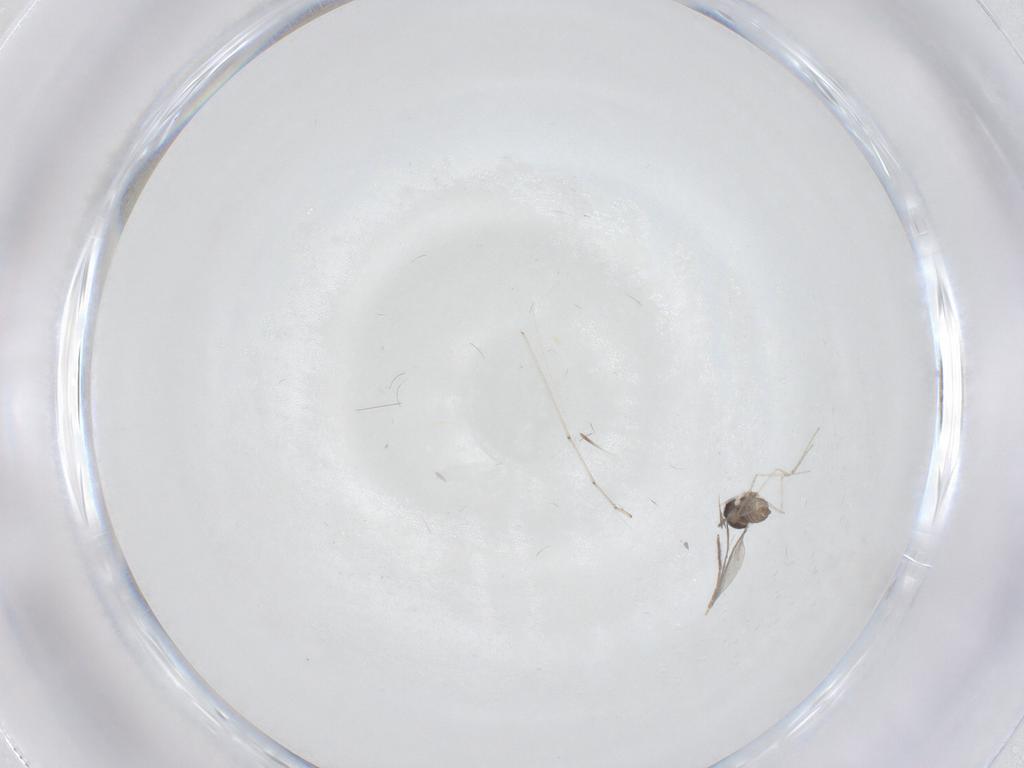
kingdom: Animalia
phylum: Arthropoda
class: Insecta
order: Diptera
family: Cecidomyiidae
